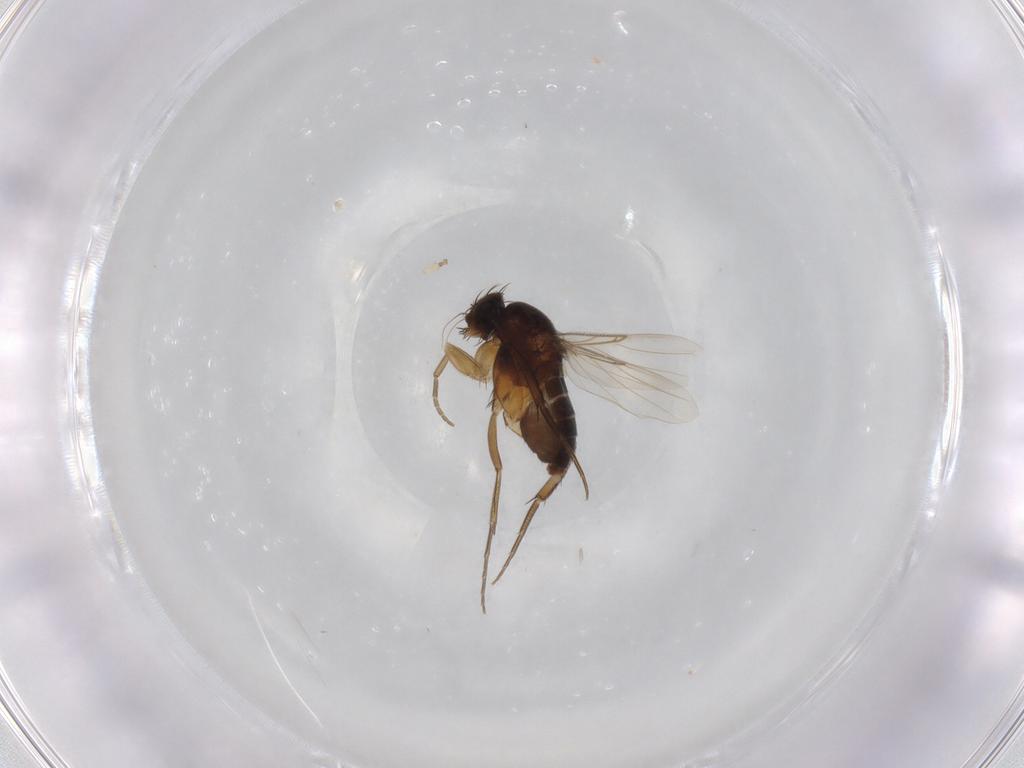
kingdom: Animalia
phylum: Arthropoda
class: Insecta
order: Diptera
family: Phoridae
